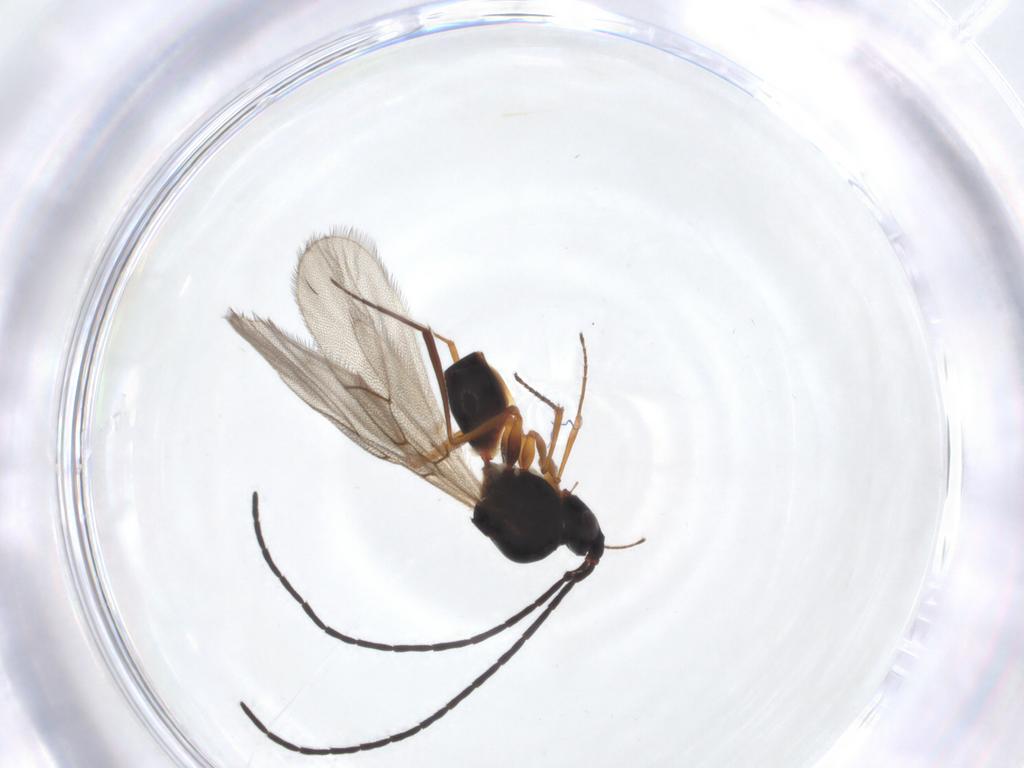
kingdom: Animalia
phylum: Arthropoda
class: Insecta
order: Hymenoptera
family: Figitidae
